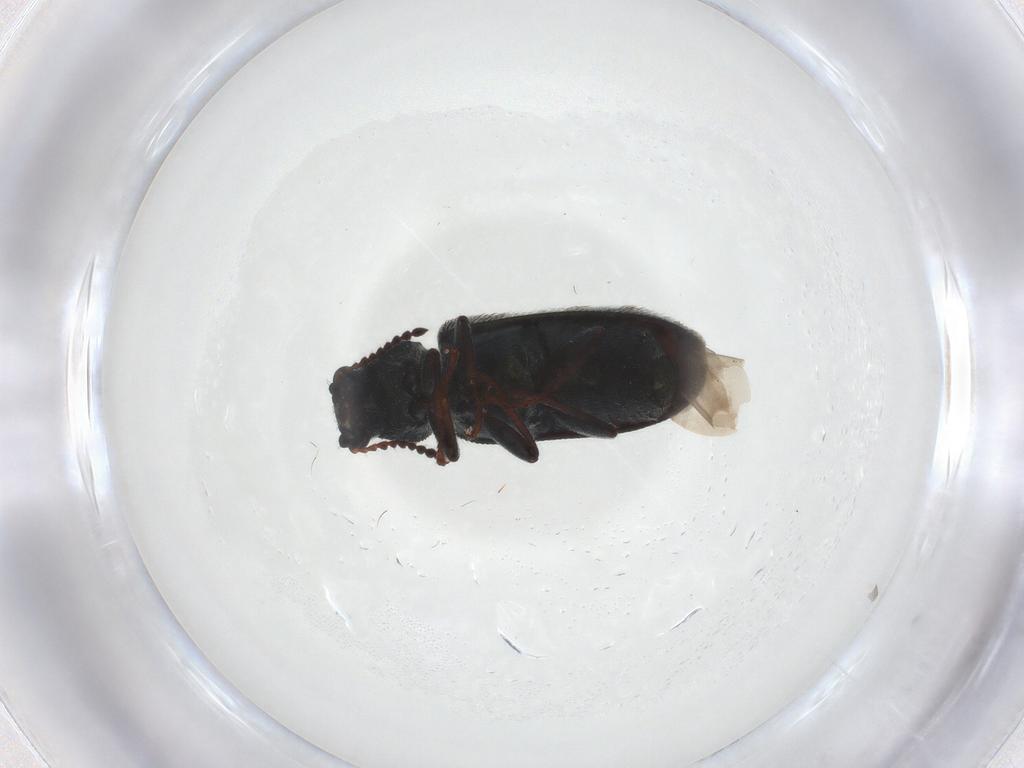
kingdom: Animalia
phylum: Arthropoda
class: Insecta
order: Coleoptera
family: Melyridae
